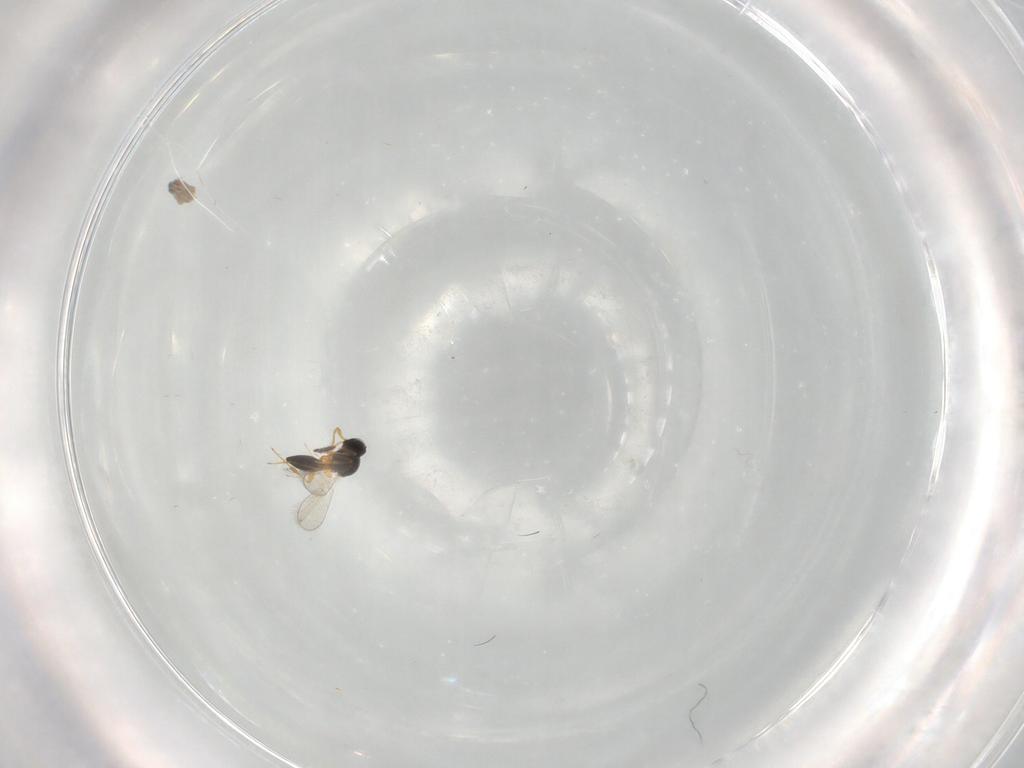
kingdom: Animalia
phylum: Arthropoda
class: Insecta
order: Hymenoptera
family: Platygastridae
